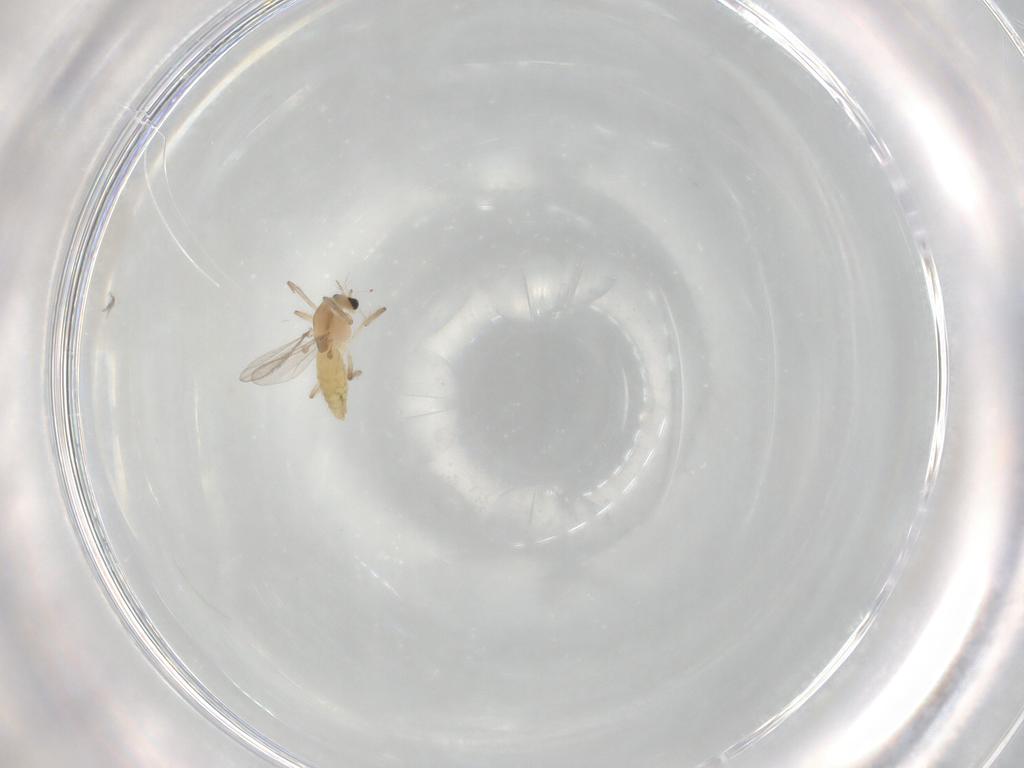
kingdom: Animalia
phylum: Arthropoda
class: Insecta
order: Diptera
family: Chironomidae
